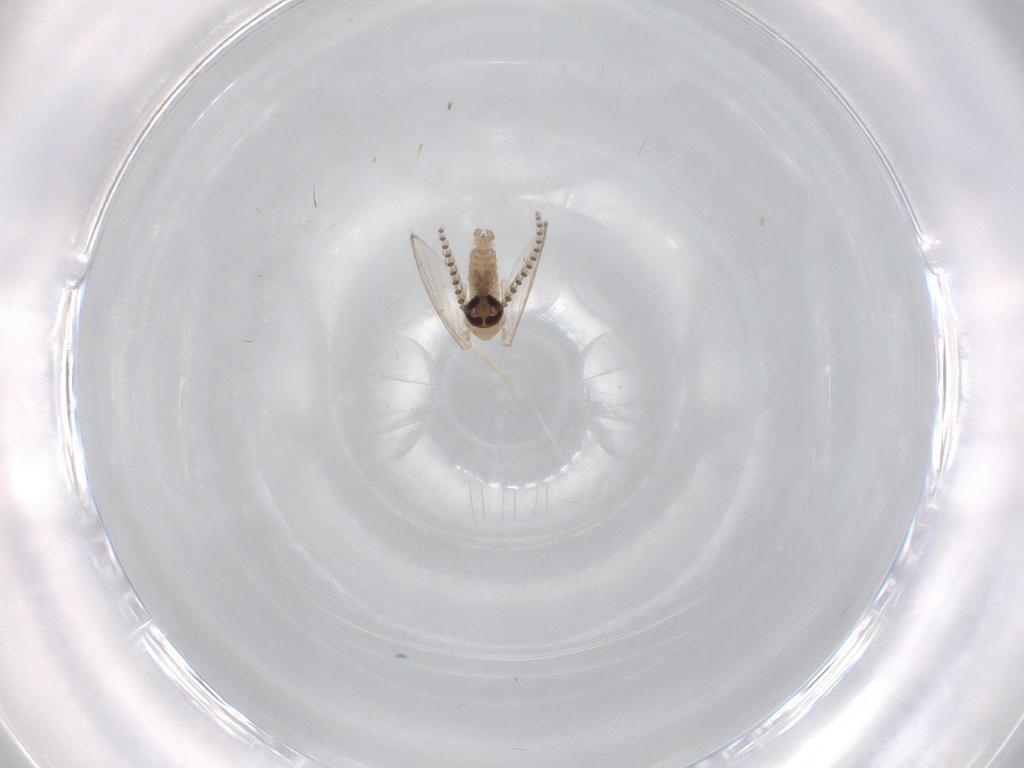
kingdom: Animalia
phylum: Arthropoda
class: Insecta
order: Diptera
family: Psychodidae
